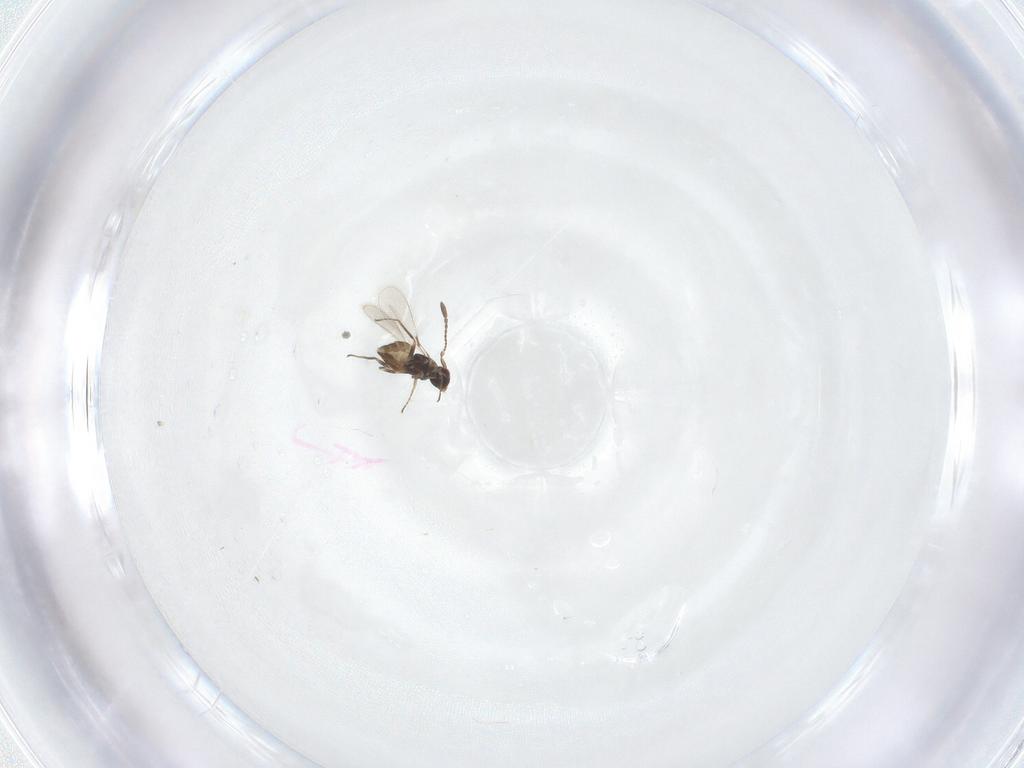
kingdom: Animalia
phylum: Arthropoda
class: Insecta
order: Hymenoptera
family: Mymaridae
